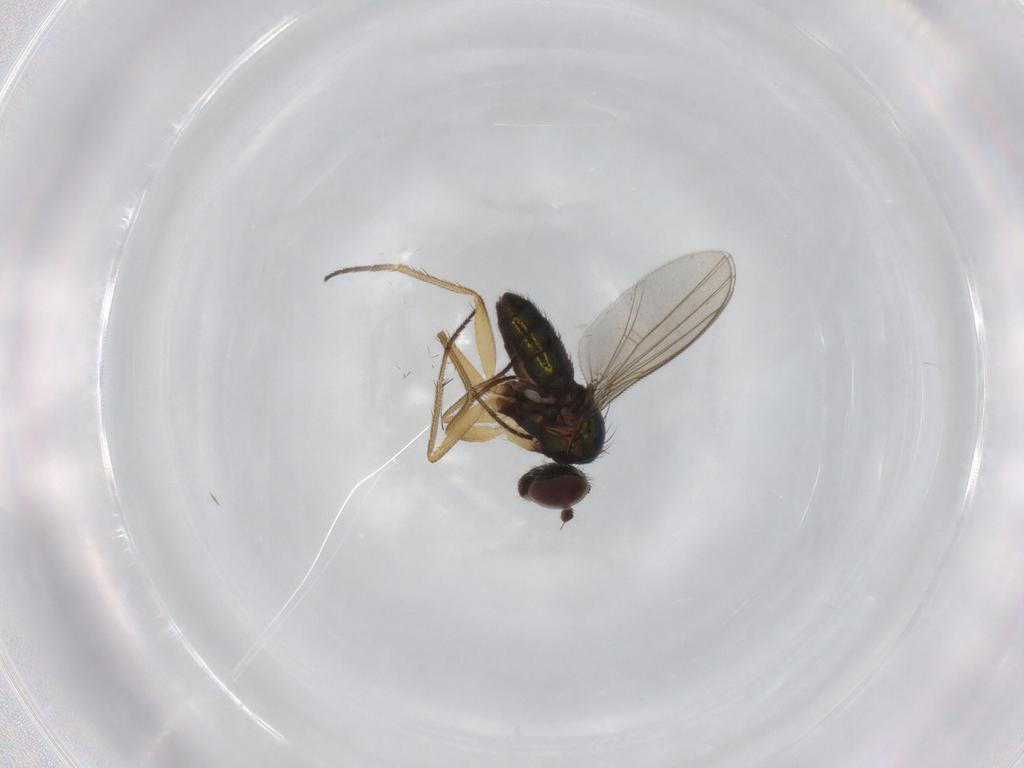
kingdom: Animalia
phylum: Arthropoda
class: Insecta
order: Diptera
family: Dolichopodidae
